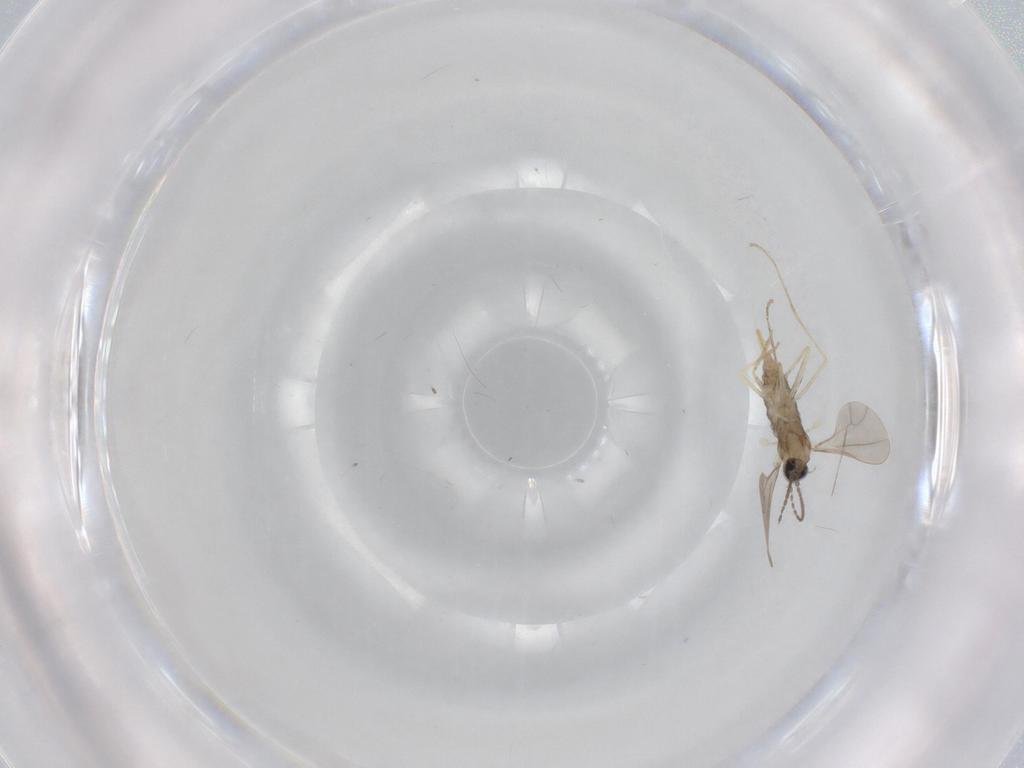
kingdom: Animalia
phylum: Arthropoda
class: Insecta
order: Diptera
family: Cecidomyiidae
